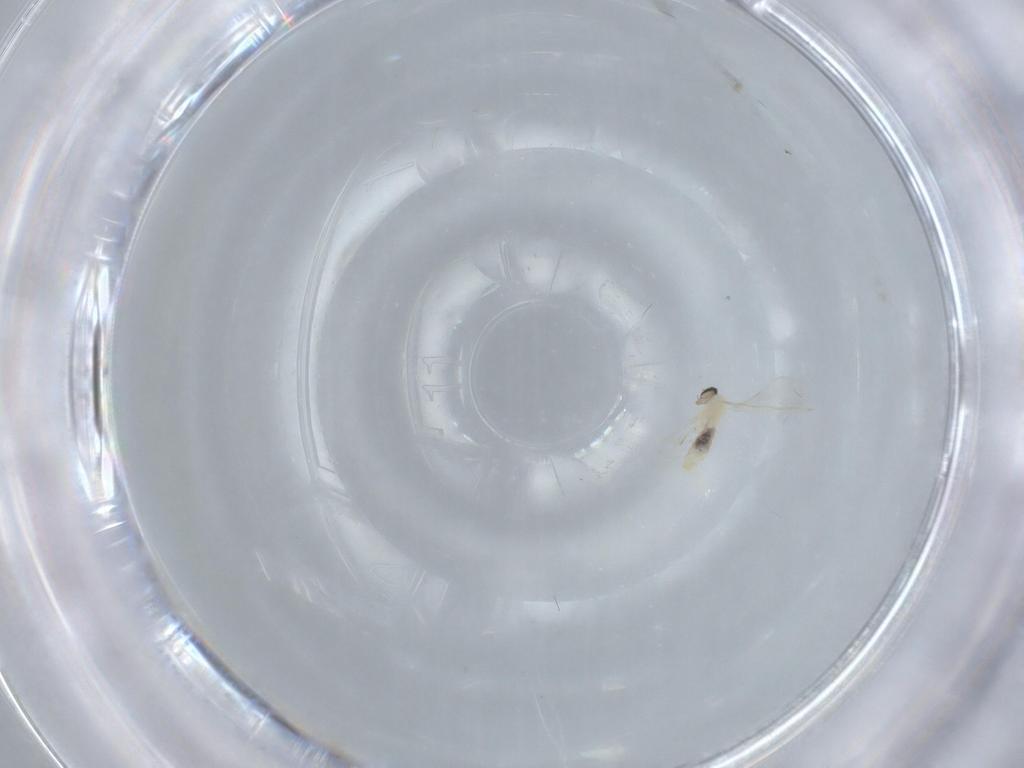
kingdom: Animalia
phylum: Arthropoda
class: Insecta
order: Diptera
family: Cecidomyiidae
